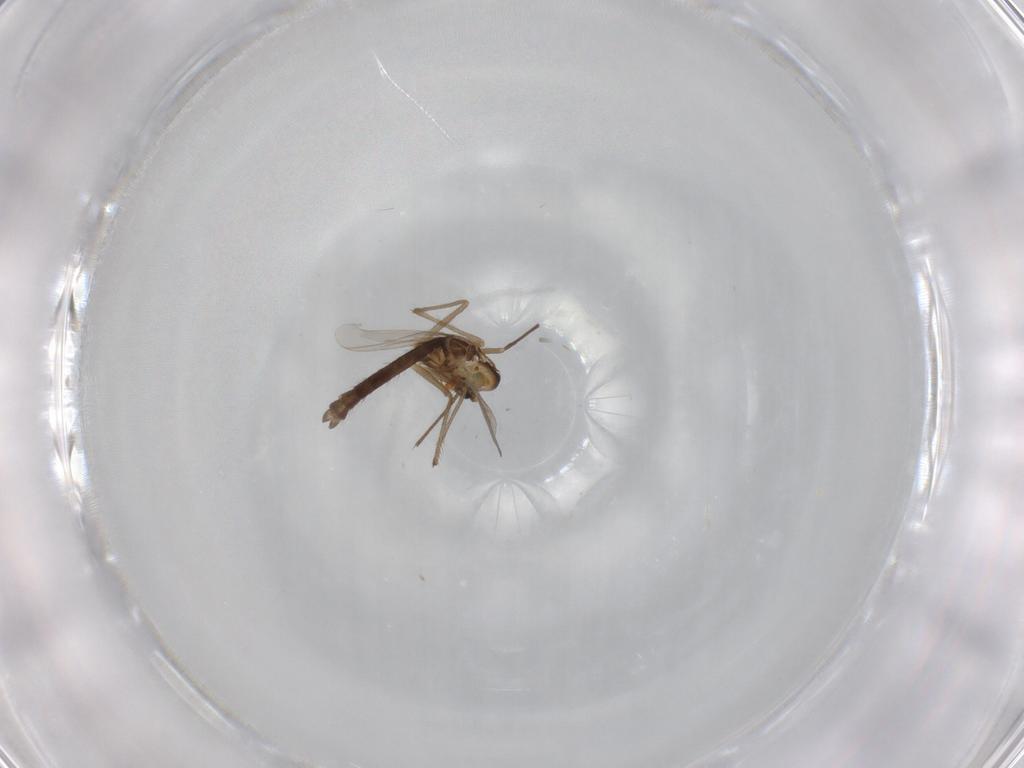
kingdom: Animalia
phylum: Arthropoda
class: Insecta
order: Diptera
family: Chironomidae
